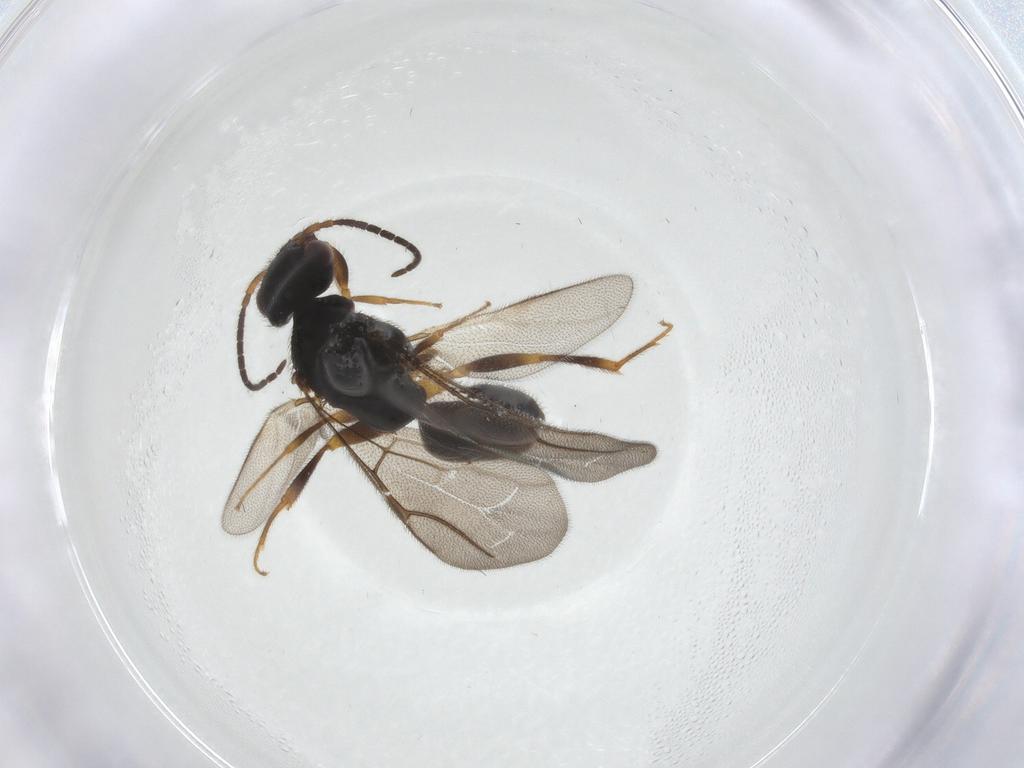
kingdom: Animalia
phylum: Arthropoda
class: Insecta
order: Hymenoptera
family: Bethylidae
